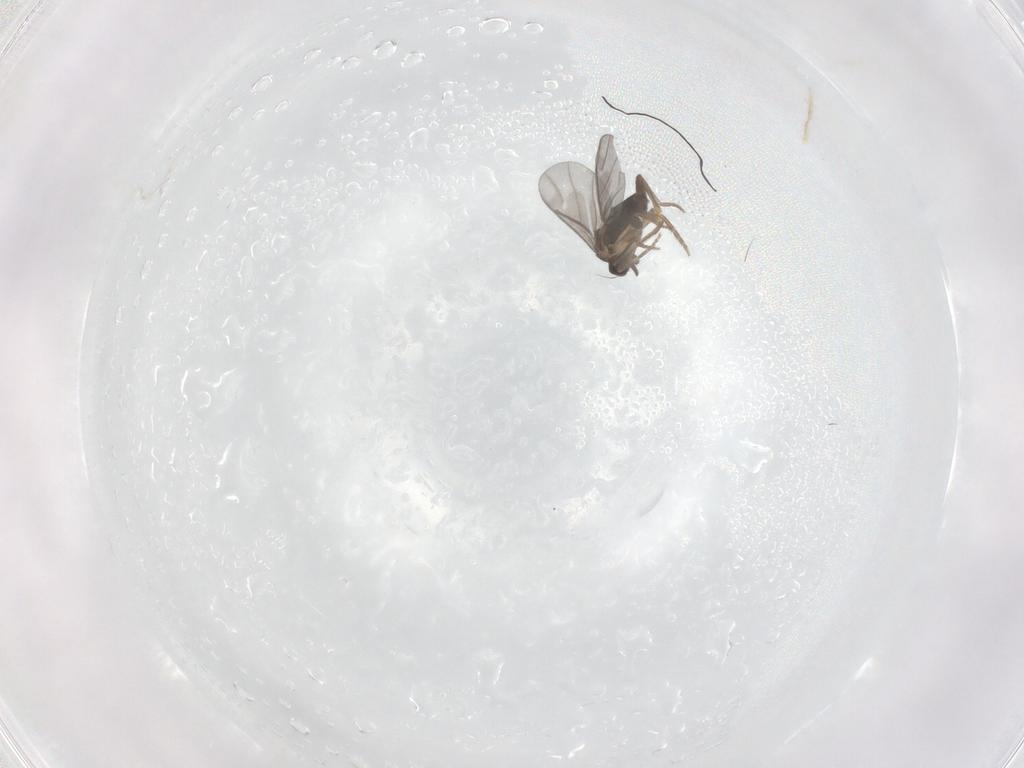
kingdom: Animalia
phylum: Arthropoda
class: Insecta
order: Diptera
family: Psychodidae
